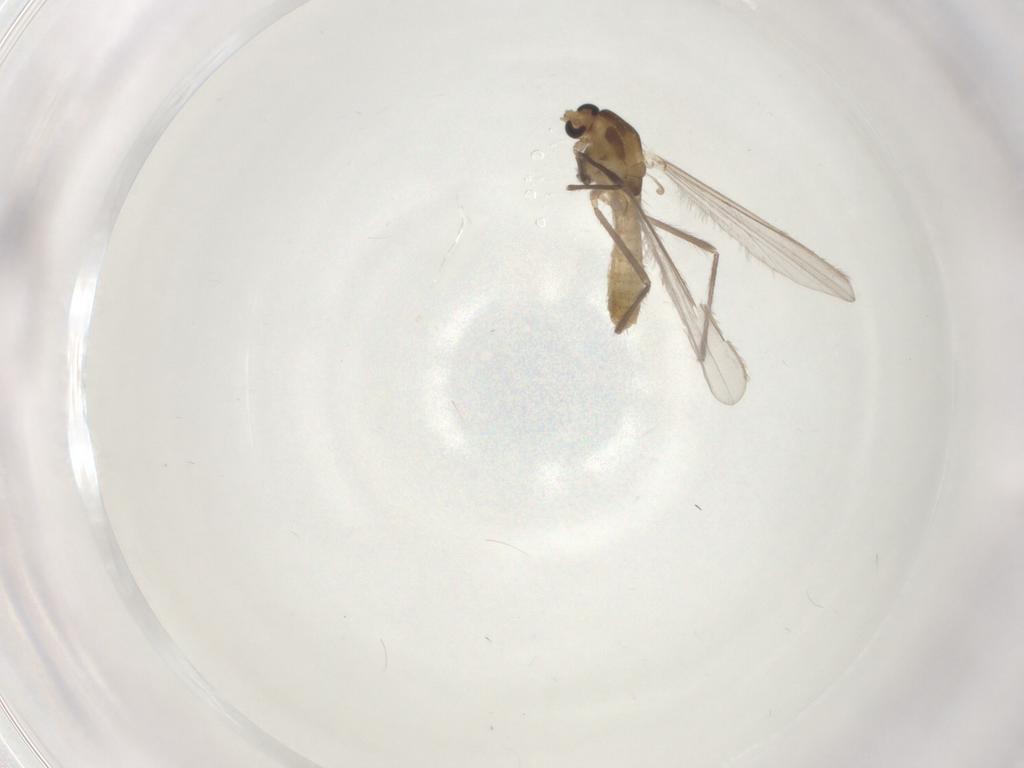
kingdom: Animalia
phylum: Arthropoda
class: Insecta
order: Diptera
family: Chironomidae
